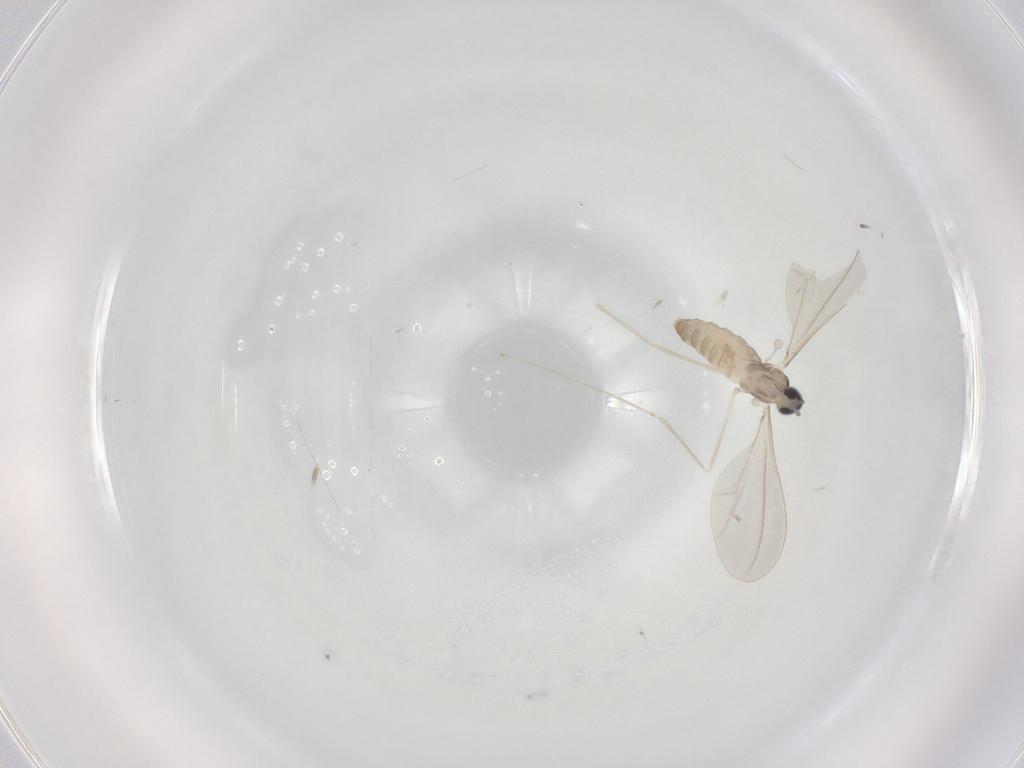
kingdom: Animalia
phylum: Arthropoda
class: Insecta
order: Diptera
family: Cecidomyiidae
